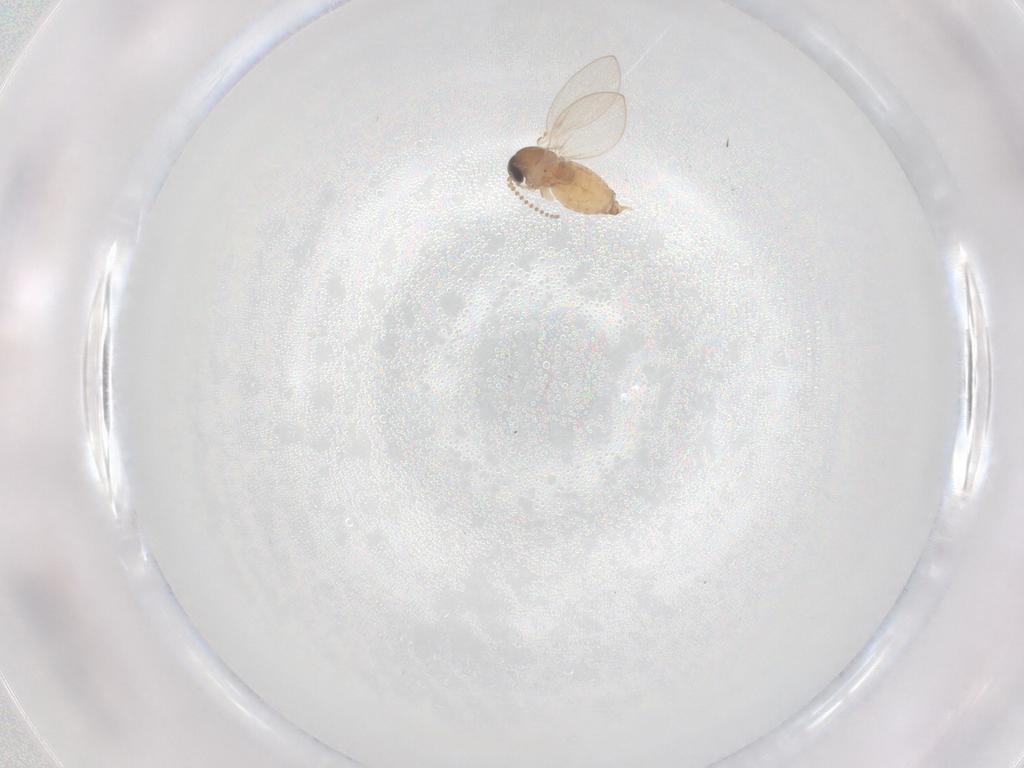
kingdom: Animalia
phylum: Arthropoda
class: Insecta
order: Diptera
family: Psychodidae
